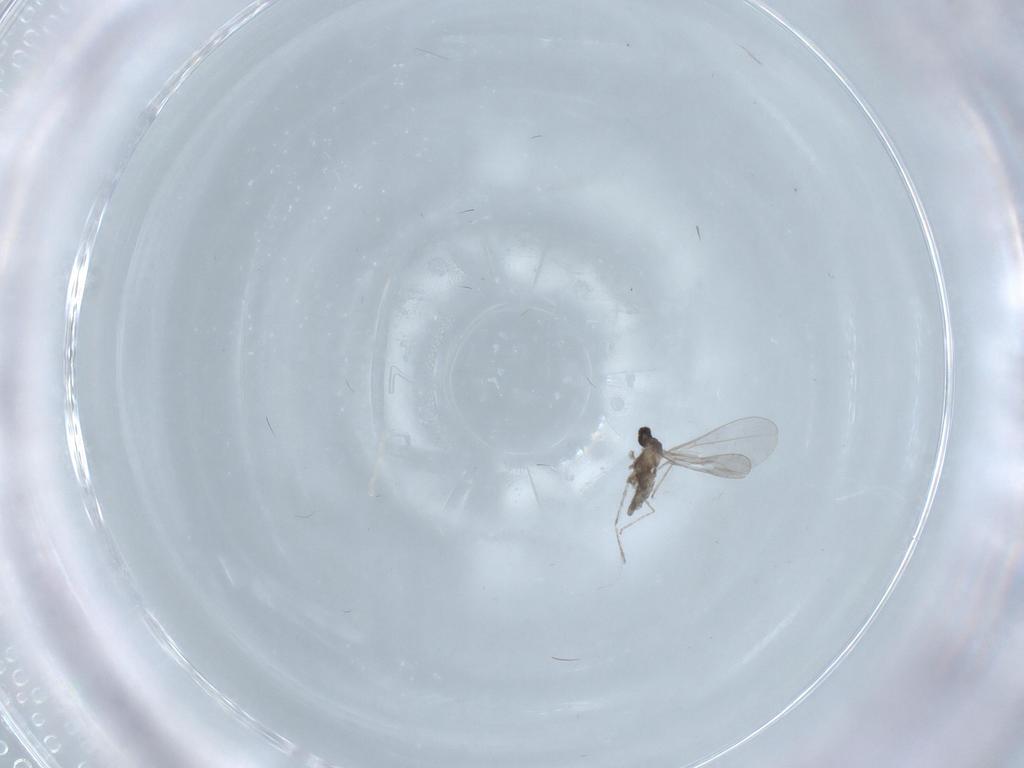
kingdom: Animalia
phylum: Arthropoda
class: Insecta
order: Diptera
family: Cecidomyiidae
